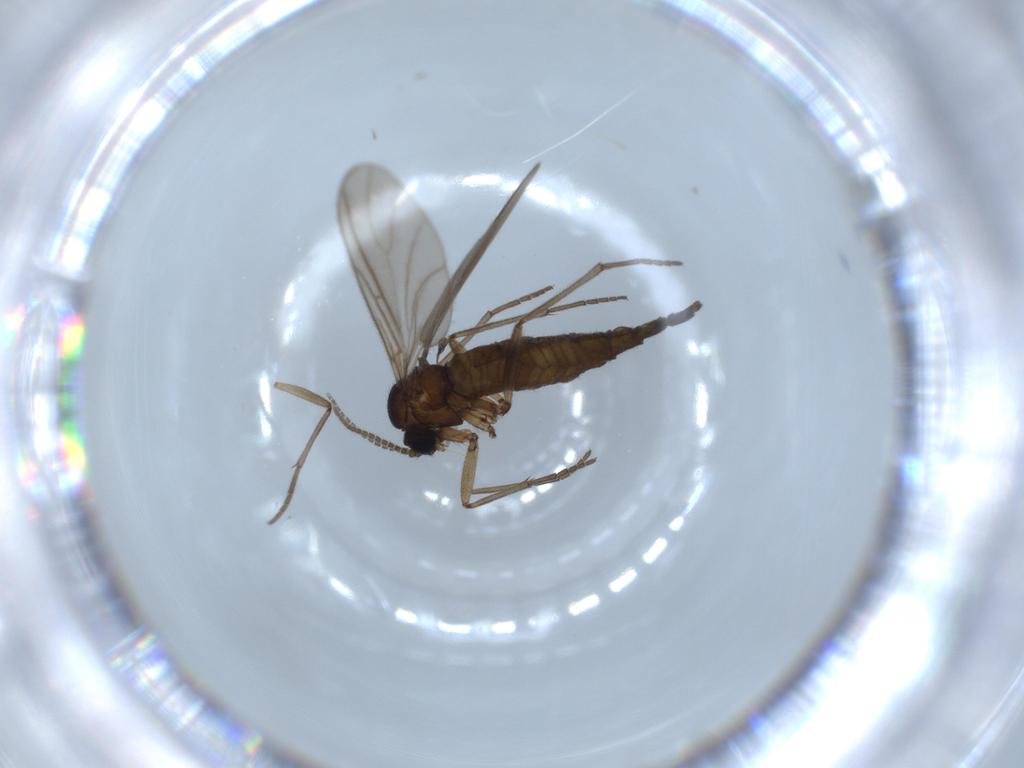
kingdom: Animalia
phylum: Arthropoda
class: Insecta
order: Diptera
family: Sciaridae
